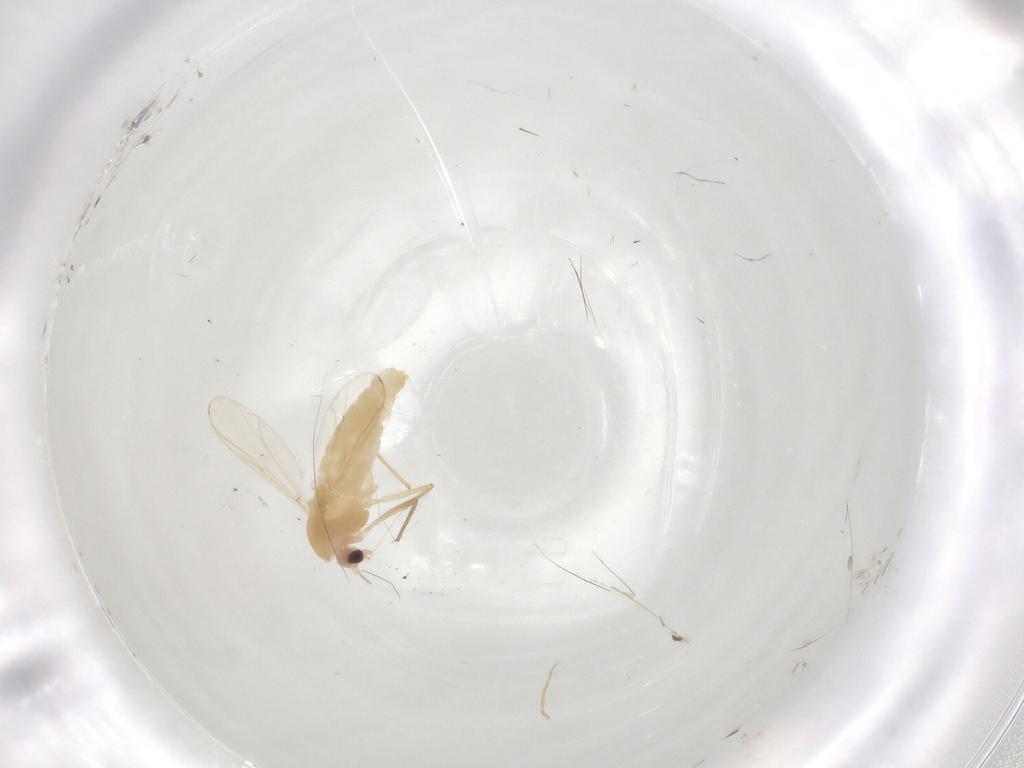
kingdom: Animalia
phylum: Arthropoda
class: Insecta
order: Diptera
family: Chironomidae
